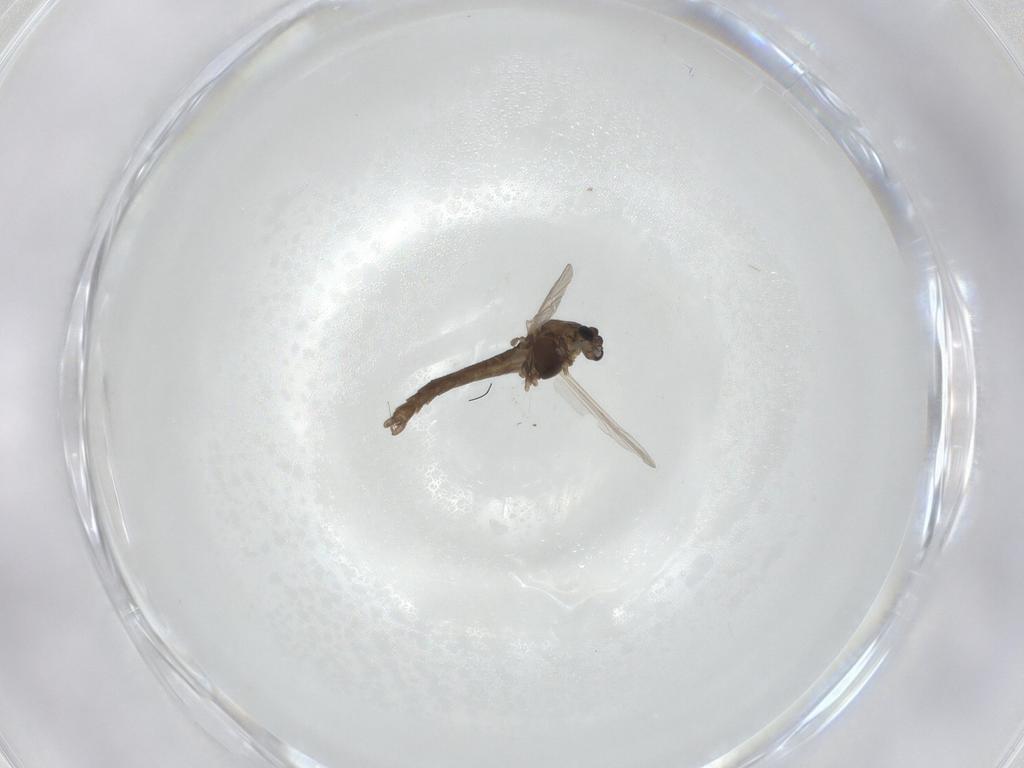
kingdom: Animalia
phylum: Arthropoda
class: Insecta
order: Diptera
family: Chironomidae
